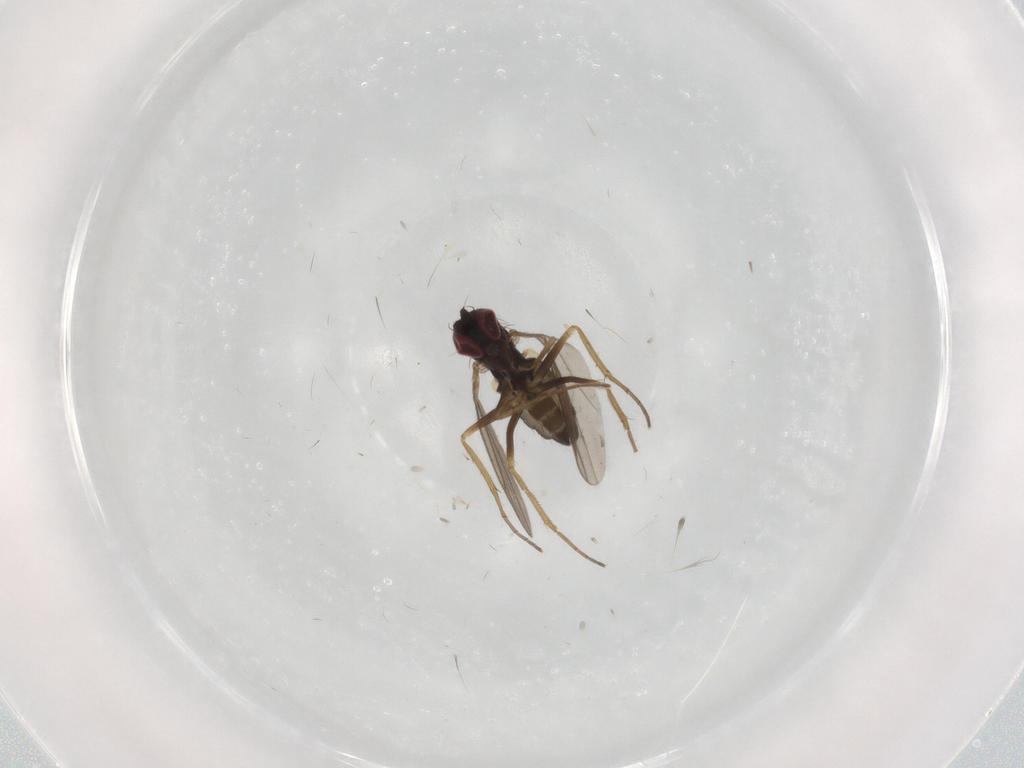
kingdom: Animalia
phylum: Arthropoda
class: Insecta
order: Diptera
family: Dolichopodidae
